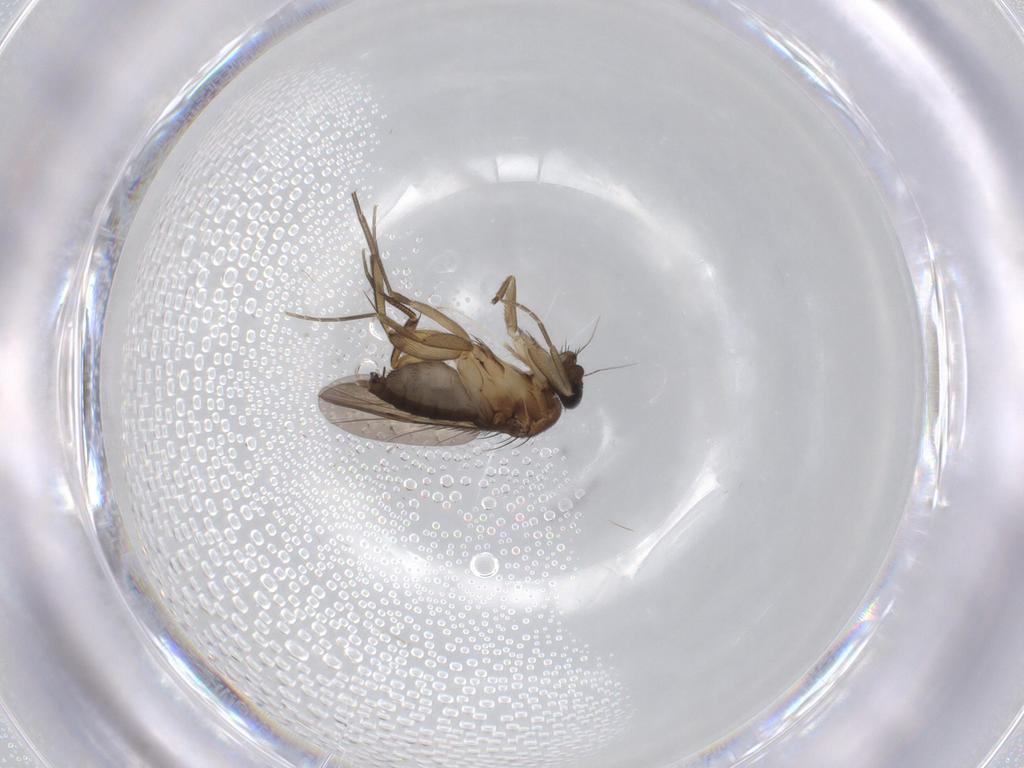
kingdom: Animalia
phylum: Arthropoda
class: Insecta
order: Diptera
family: Phoridae
